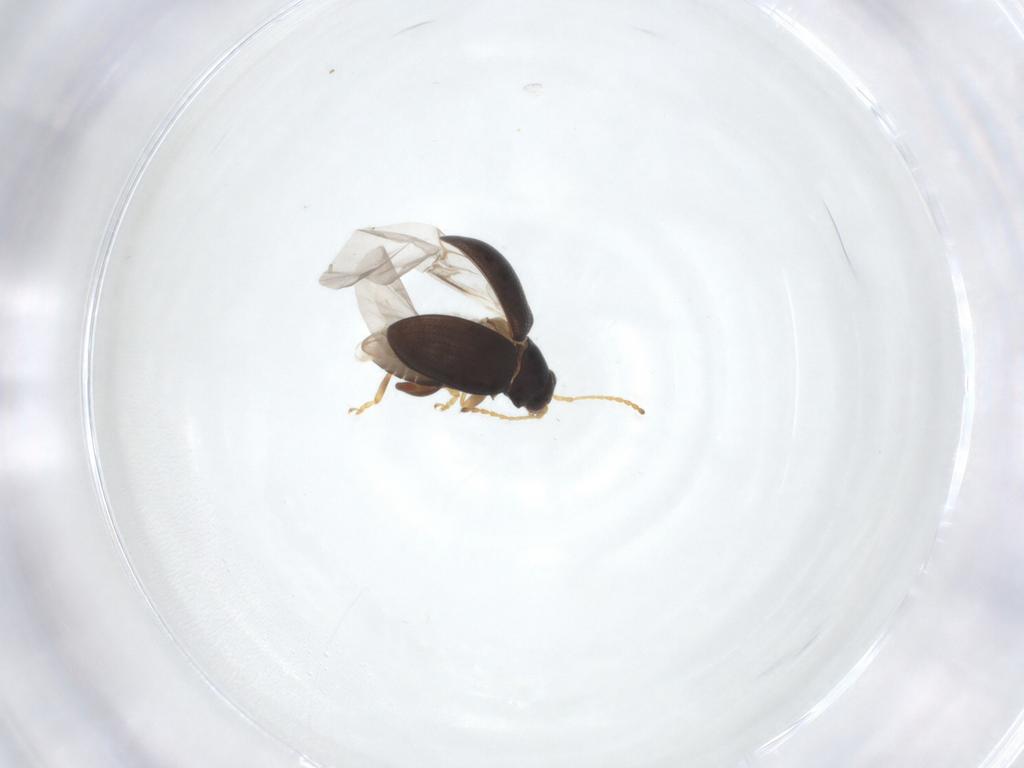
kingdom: Animalia
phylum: Arthropoda
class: Insecta
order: Coleoptera
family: Chrysomelidae
